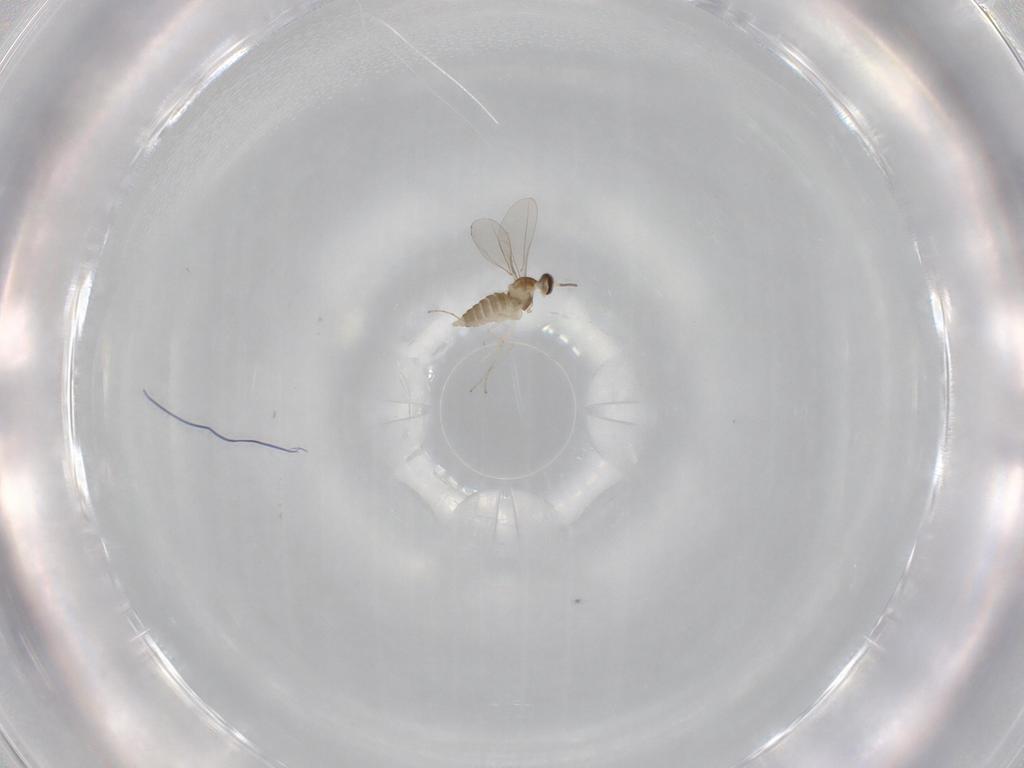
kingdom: Animalia
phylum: Arthropoda
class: Insecta
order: Diptera
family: Cecidomyiidae
